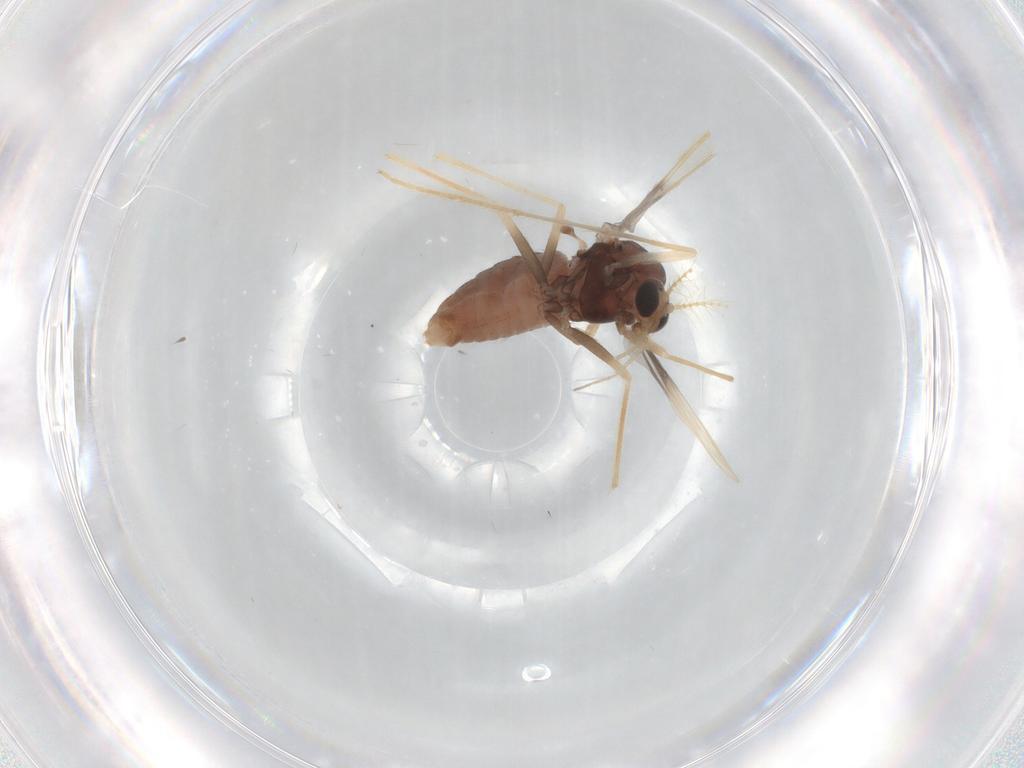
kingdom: Animalia
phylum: Arthropoda
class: Insecta
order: Diptera
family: Chironomidae
